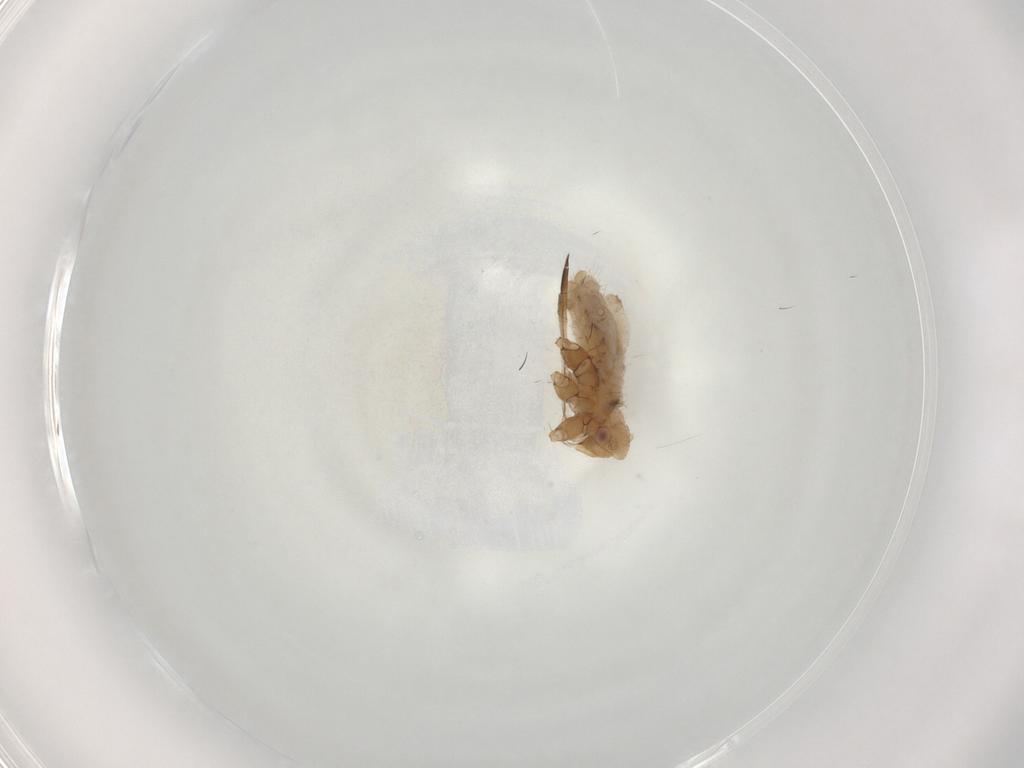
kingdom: Animalia
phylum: Arthropoda
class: Insecta
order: Hemiptera
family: Aphididae
